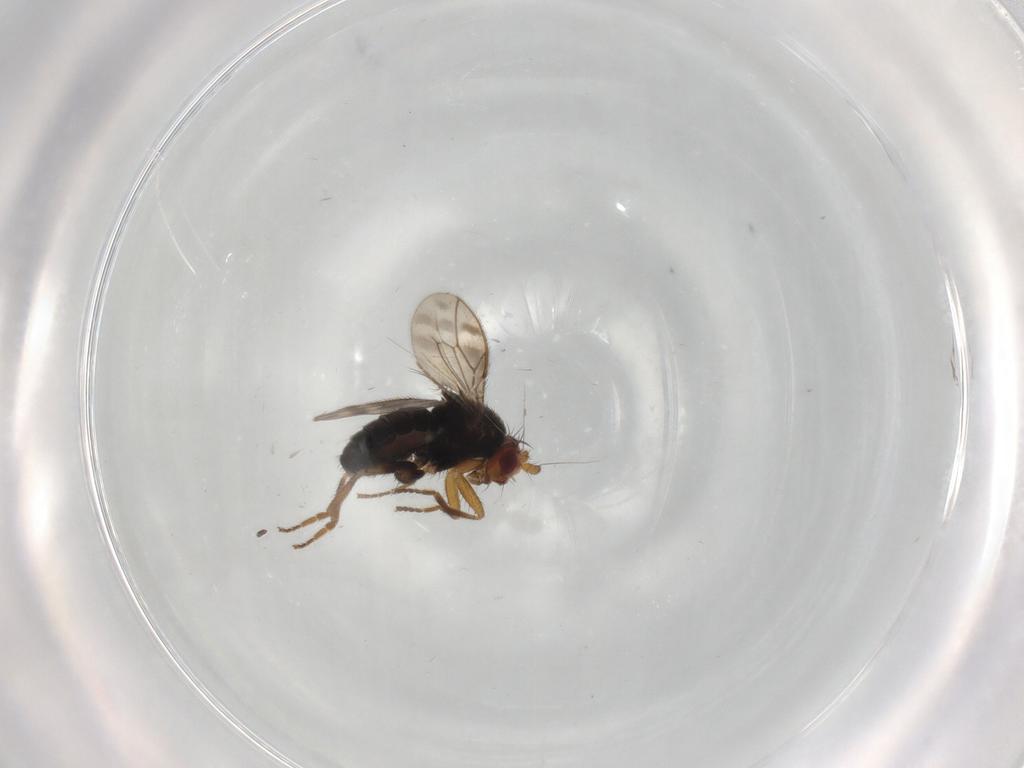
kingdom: Animalia
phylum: Arthropoda
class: Insecta
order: Diptera
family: Sphaeroceridae
